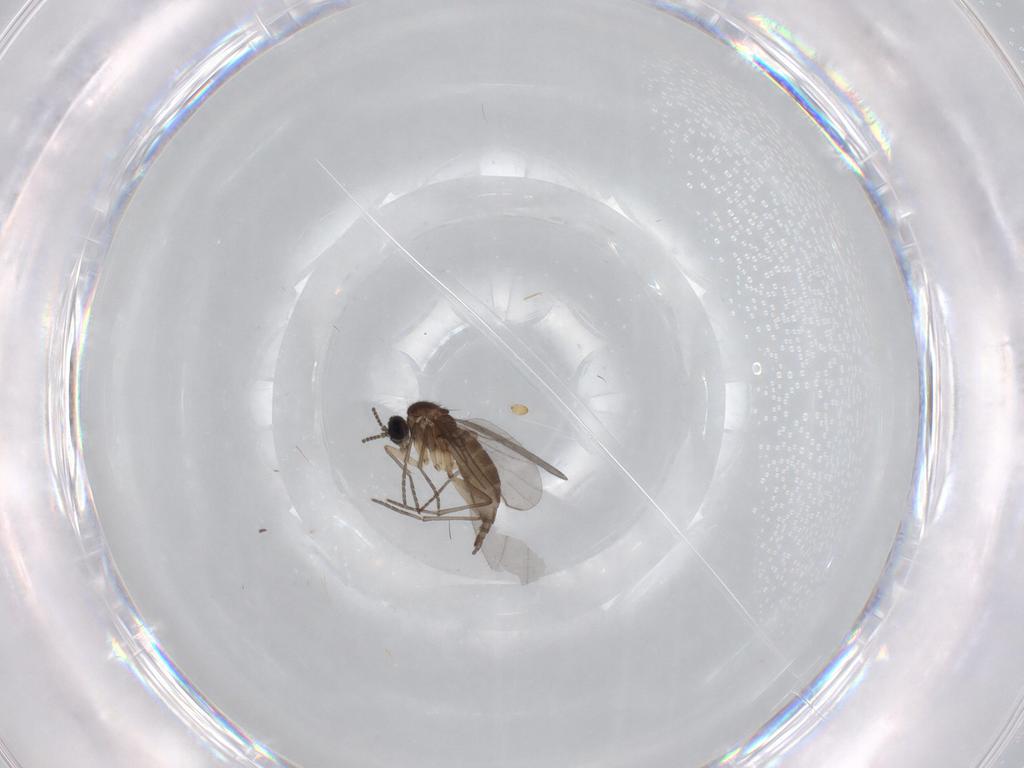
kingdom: Animalia
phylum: Arthropoda
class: Insecta
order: Diptera
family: Sciaridae
